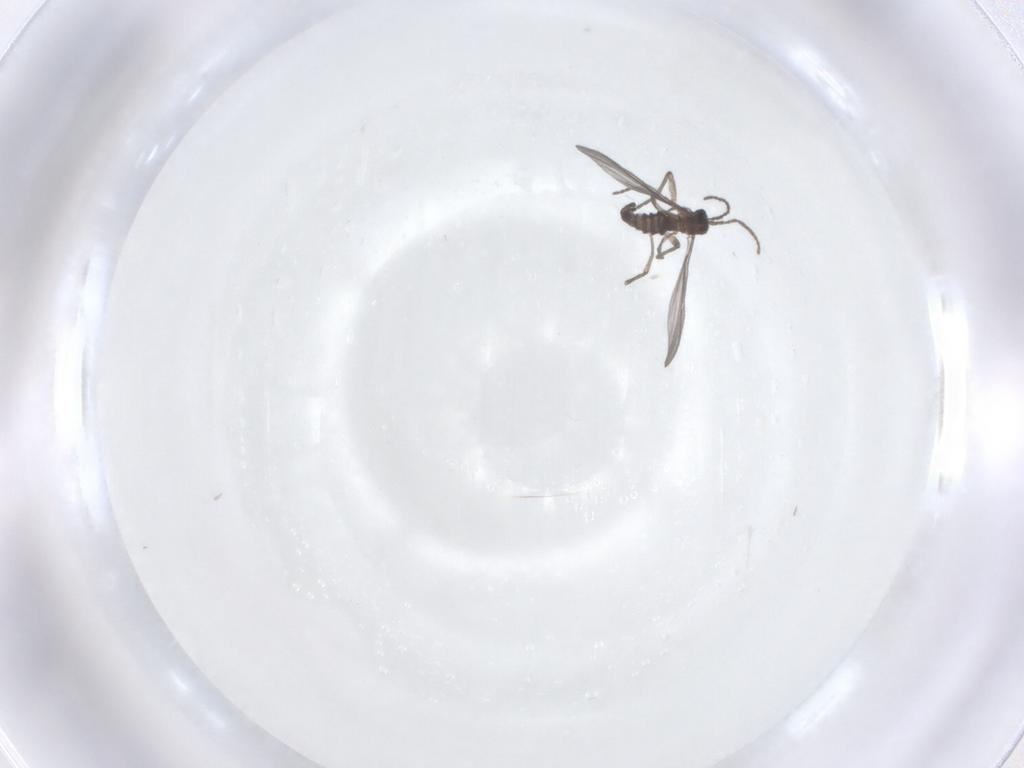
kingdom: Animalia
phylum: Arthropoda
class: Insecta
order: Diptera
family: Sciaridae
